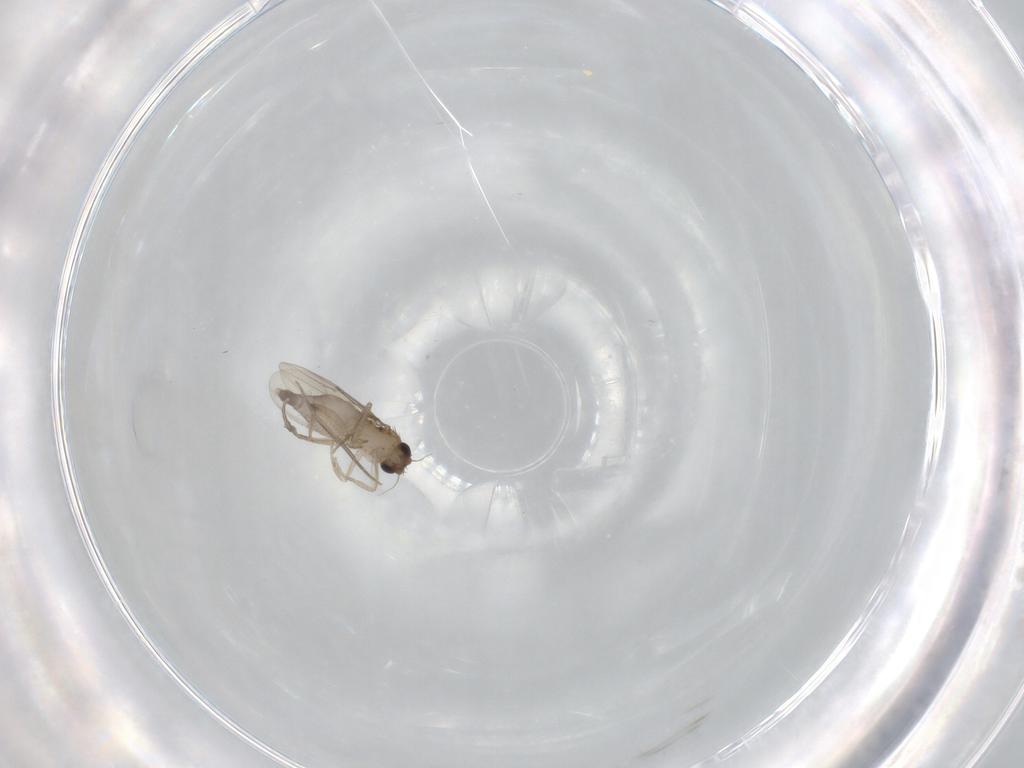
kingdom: Animalia
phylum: Arthropoda
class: Insecta
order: Diptera
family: Phoridae
